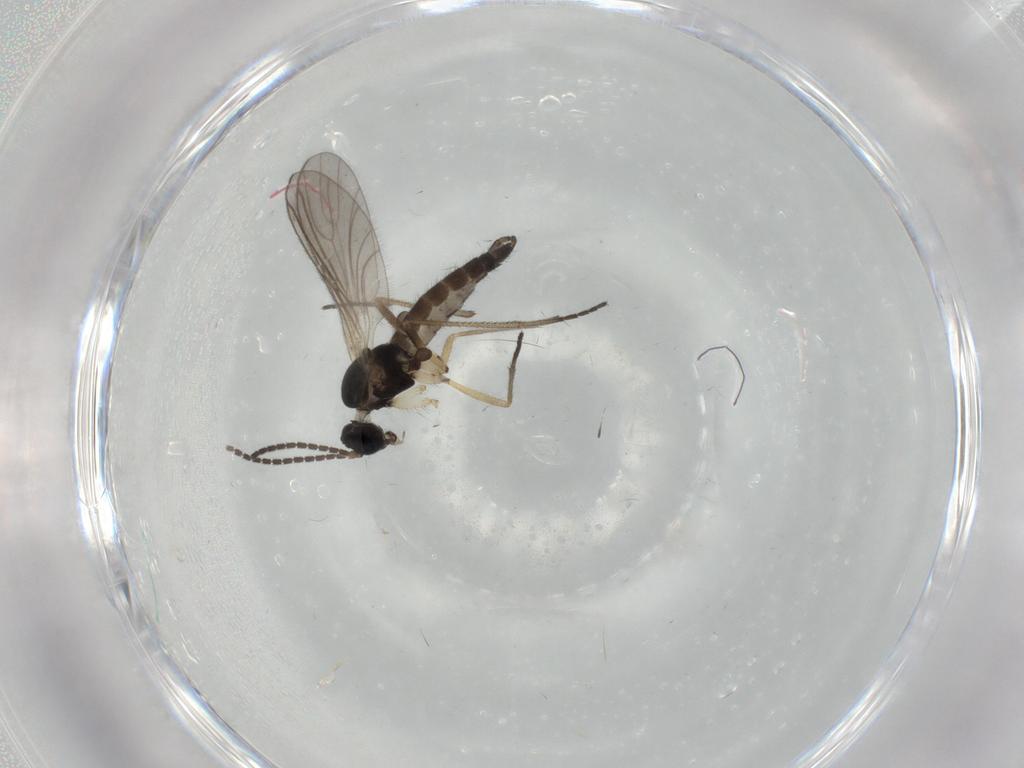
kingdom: Animalia
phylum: Arthropoda
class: Insecta
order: Diptera
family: Sciaridae
